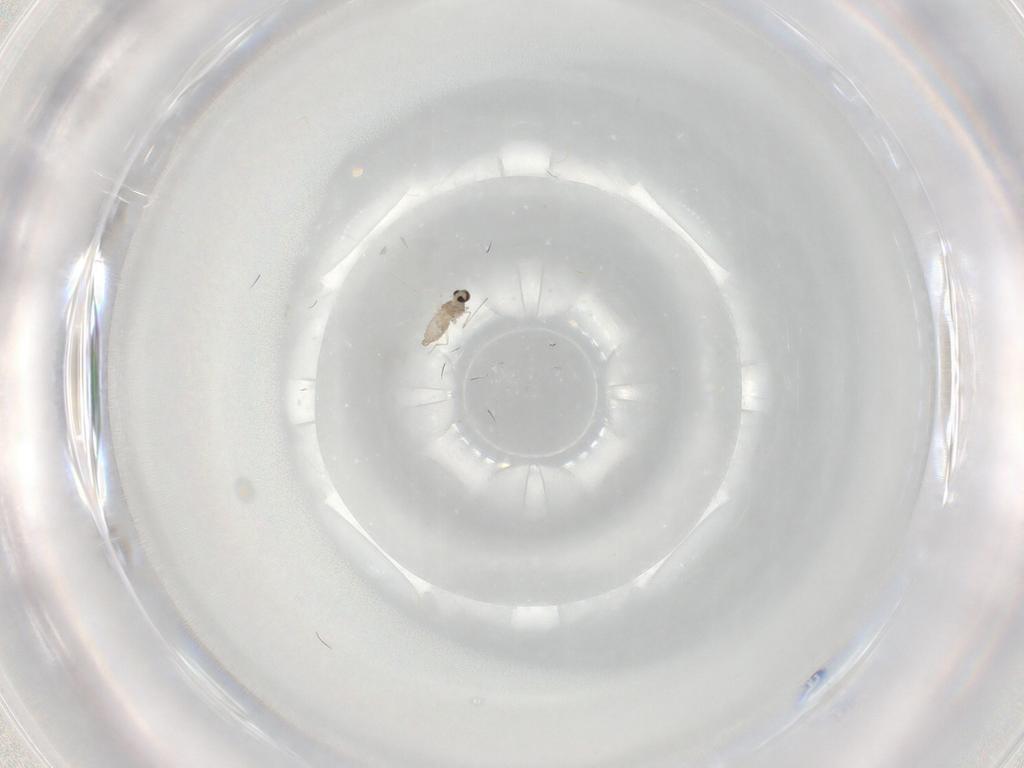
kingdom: Animalia
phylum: Arthropoda
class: Insecta
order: Diptera
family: Cecidomyiidae
